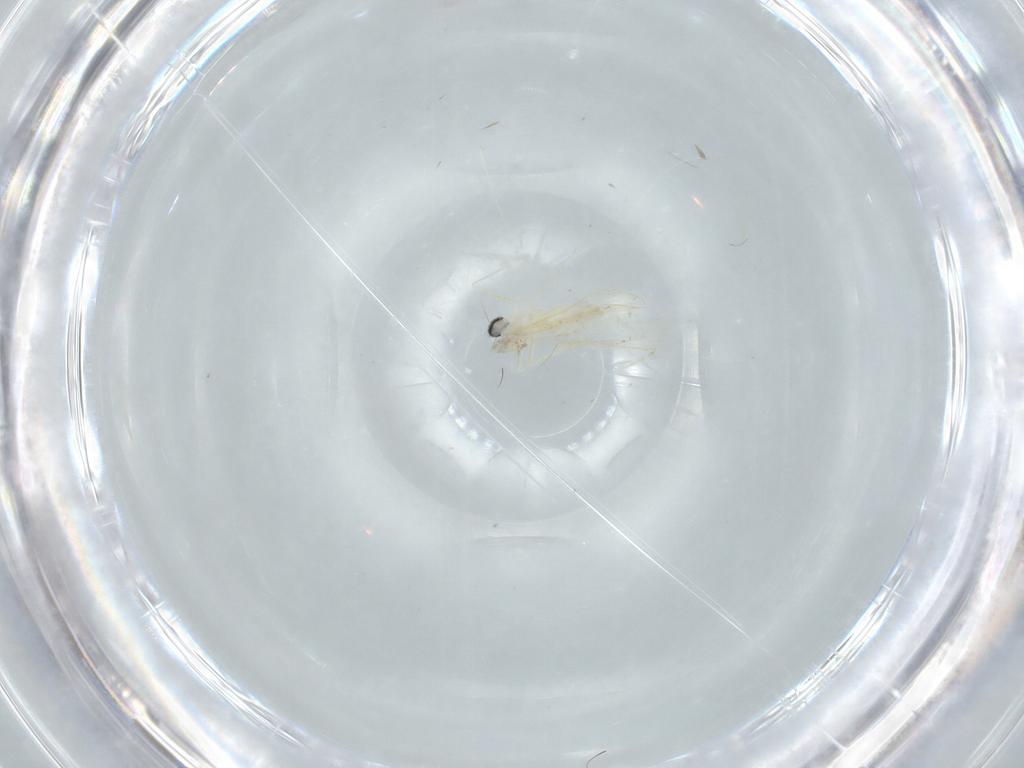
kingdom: Animalia
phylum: Arthropoda
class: Insecta
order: Diptera
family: Cecidomyiidae
